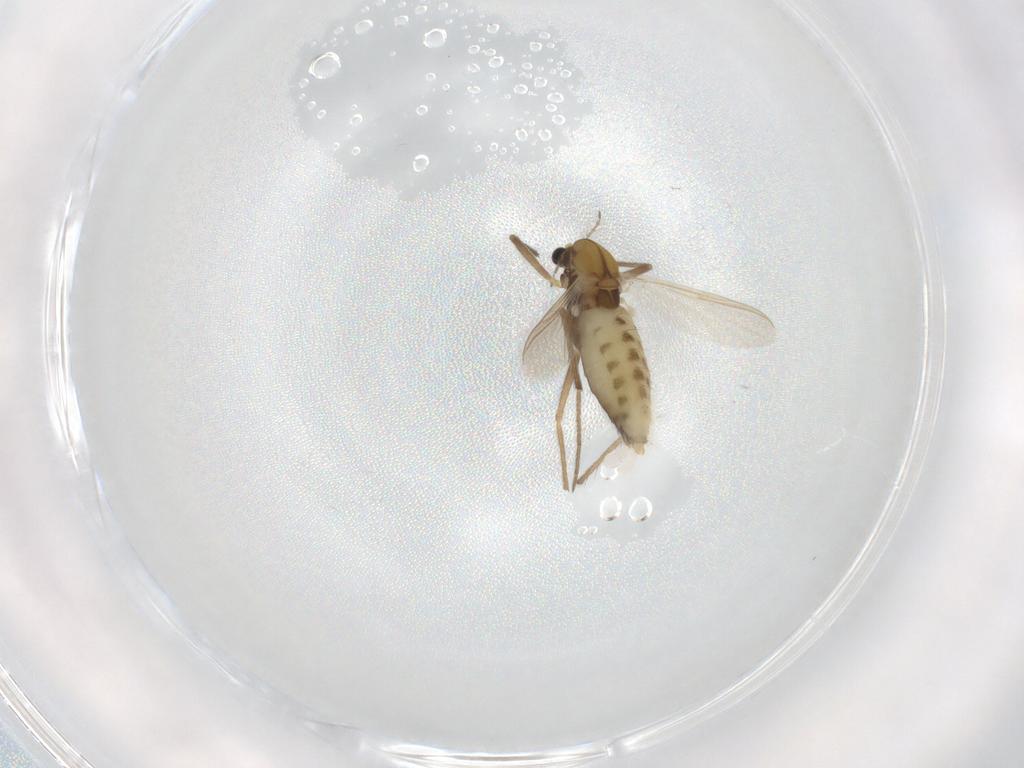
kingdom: Animalia
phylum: Arthropoda
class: Insecta
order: Diptera
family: Chironomidae
